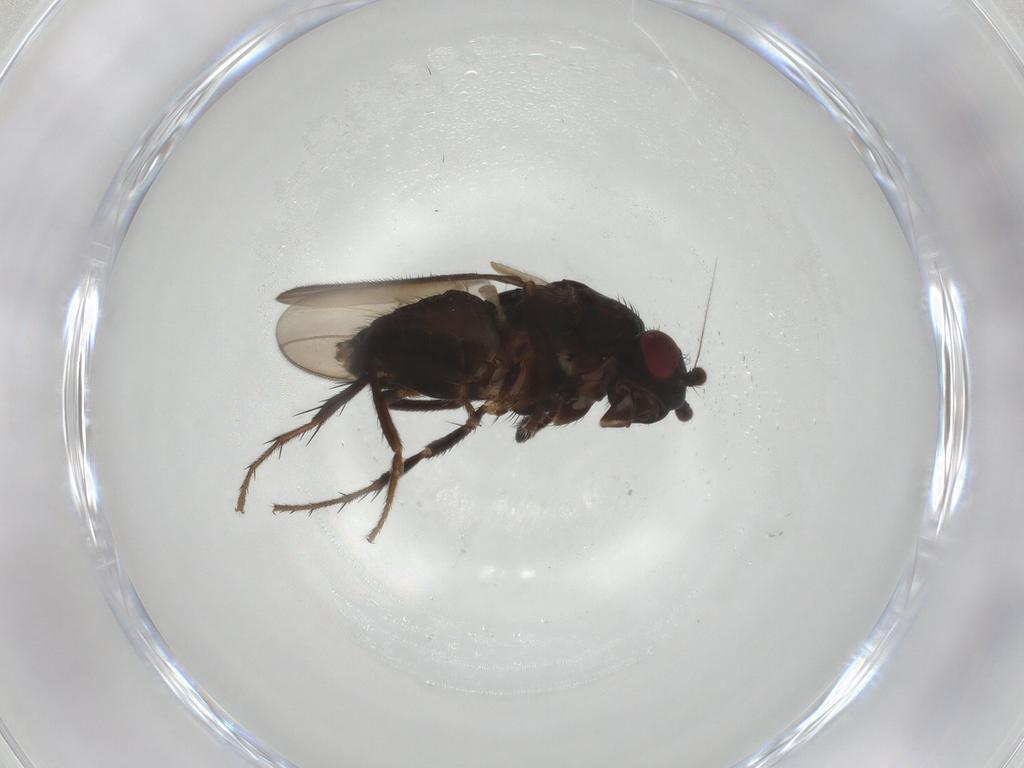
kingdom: Animalia
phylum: Arthropoda
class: Insecta
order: Diptera
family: Sphaeroceridae
